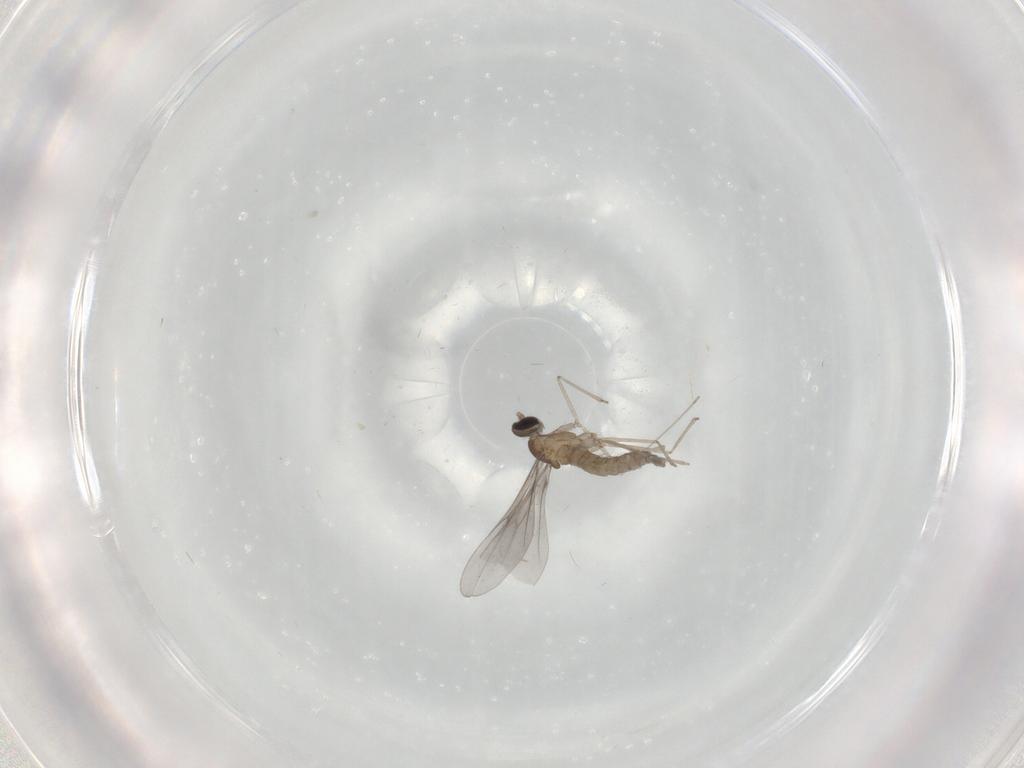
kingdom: Animalia
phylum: Arthropoda
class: Insecta
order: Diptera
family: Cecidomyiidae
